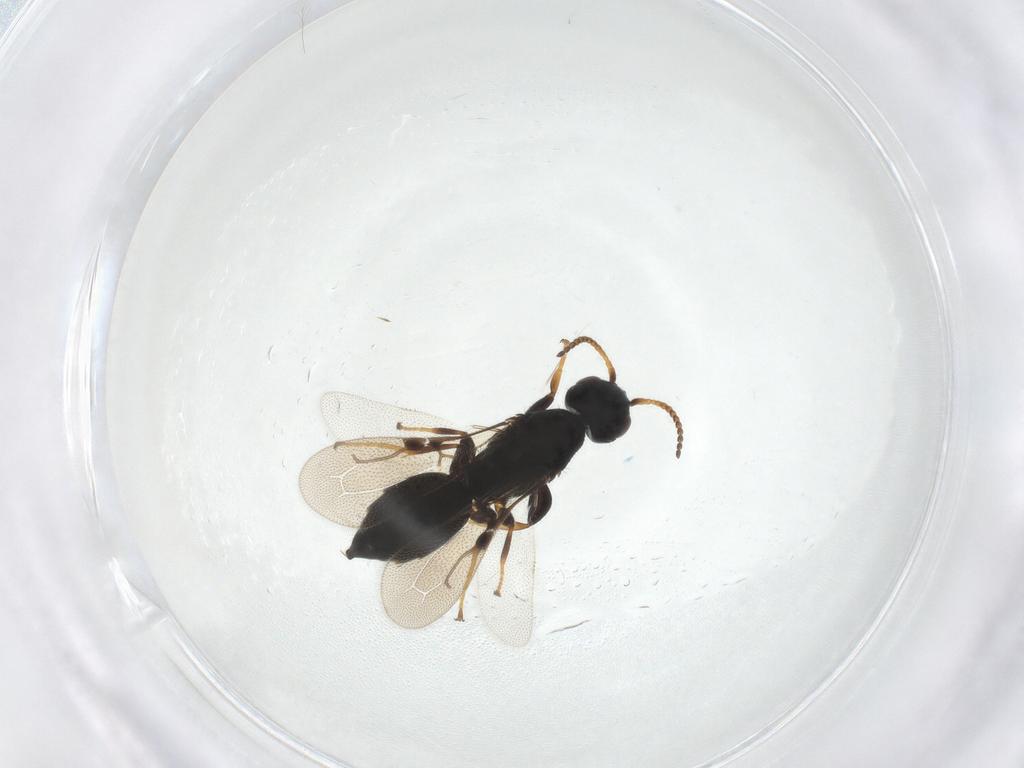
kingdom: Animalia
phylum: Arthropoda
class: Insecta
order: Hymenoptera
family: Bethylidae
